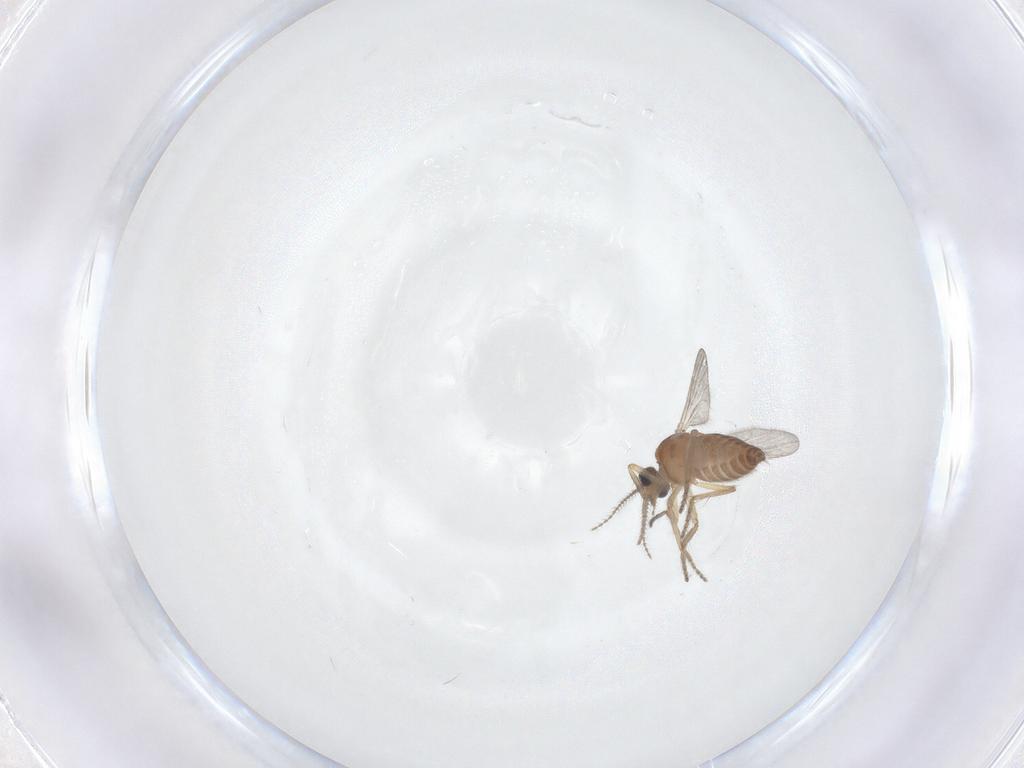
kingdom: Animalia
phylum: Arthropoda
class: Insecta
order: Diptera
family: Ceratopogonidae
